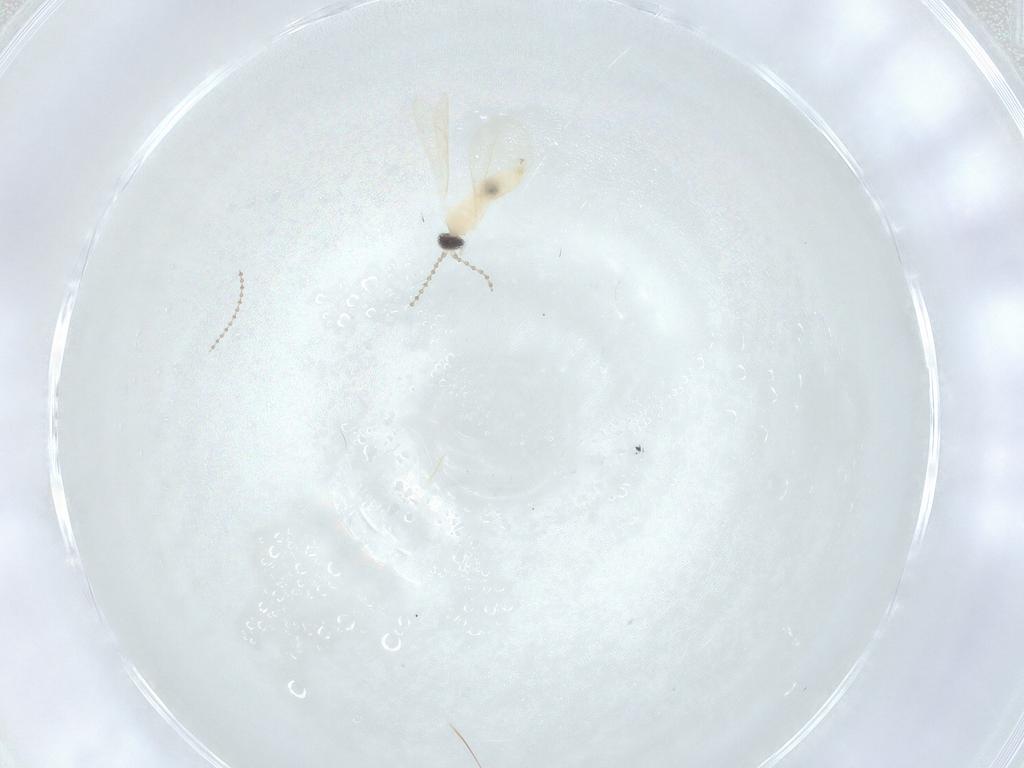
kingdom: Animalia
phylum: Arthropoda
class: Insecta
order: Diptera
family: Cecidomyiidae
